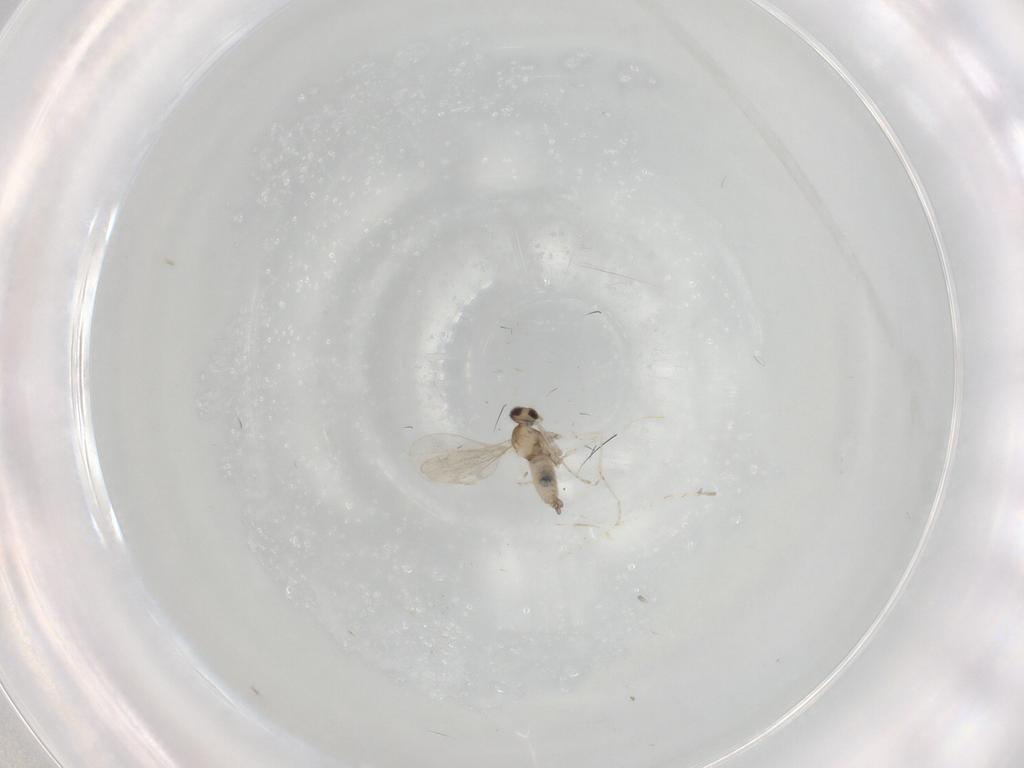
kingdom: Animalia
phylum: Arthropoda
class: Insecta
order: Diptera
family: Cecidomyiidae
